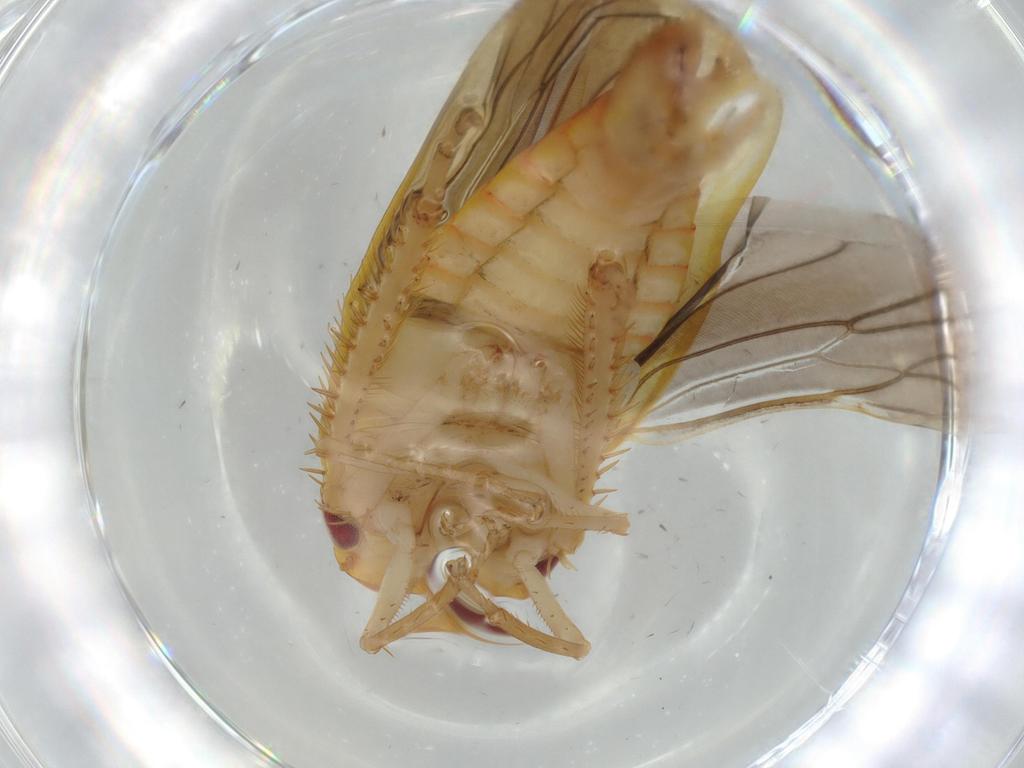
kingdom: Animalia
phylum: Arthropoda
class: Insecta
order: Hemiptera
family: Cicadellidae
